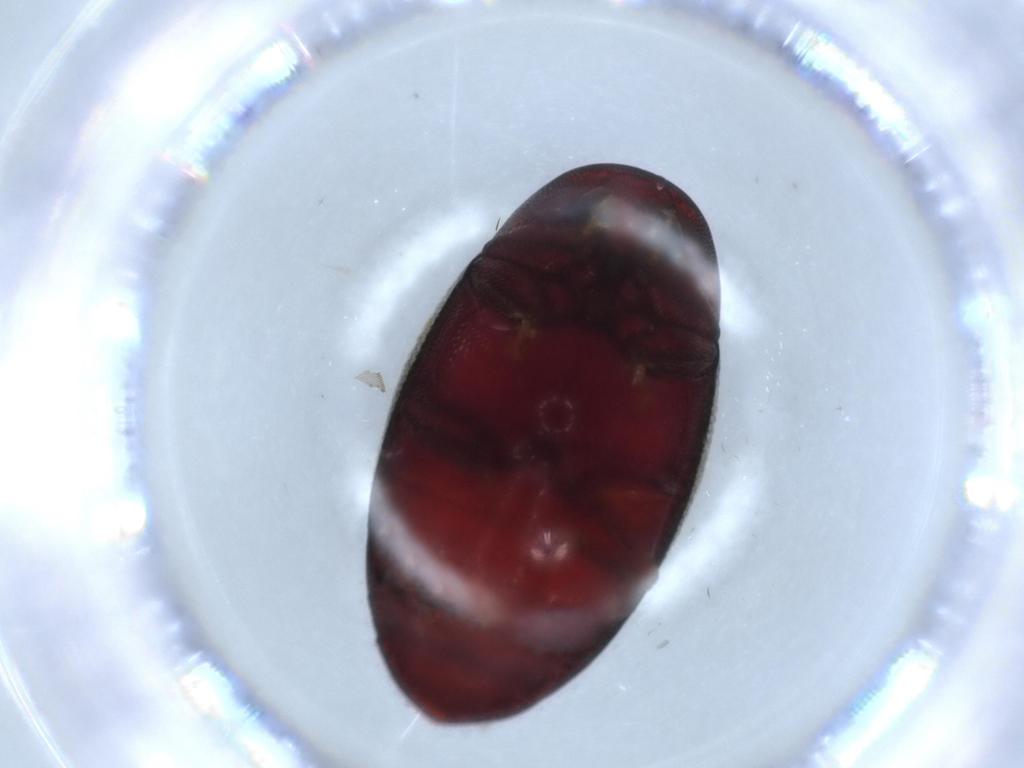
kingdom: Animalia
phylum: Arthropoda
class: Insecta
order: Coleoptera
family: Chelonariidae
